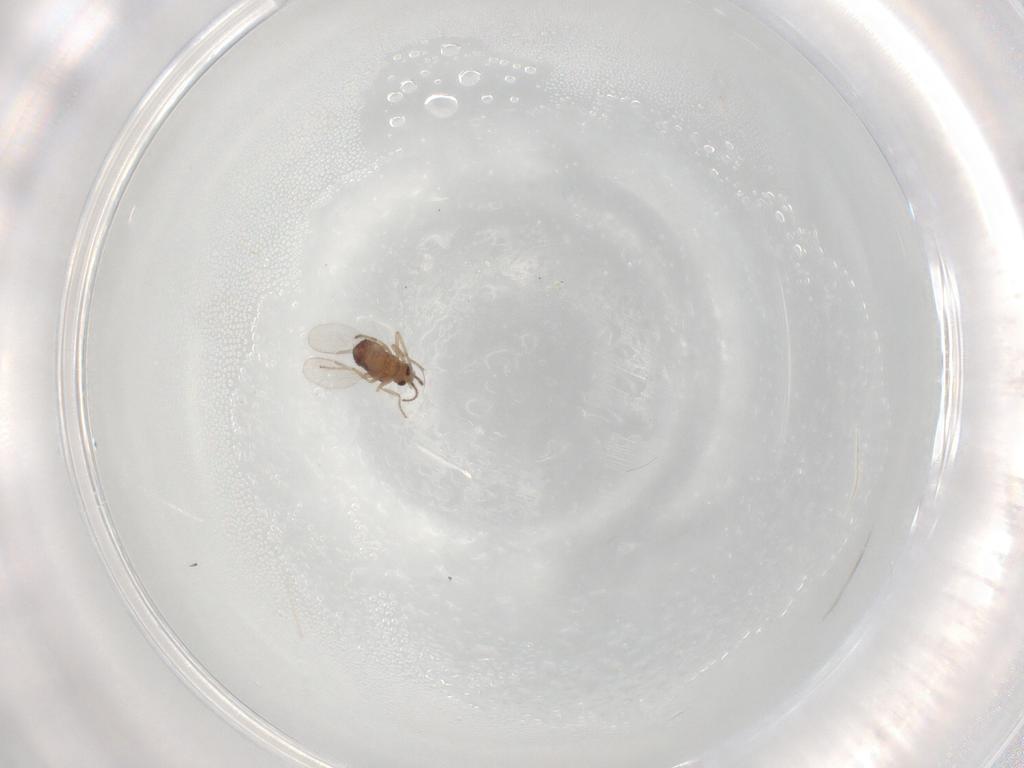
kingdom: Animalia
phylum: Arthropoda
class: Insecta
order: Diptera
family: Ceratopogonidae
